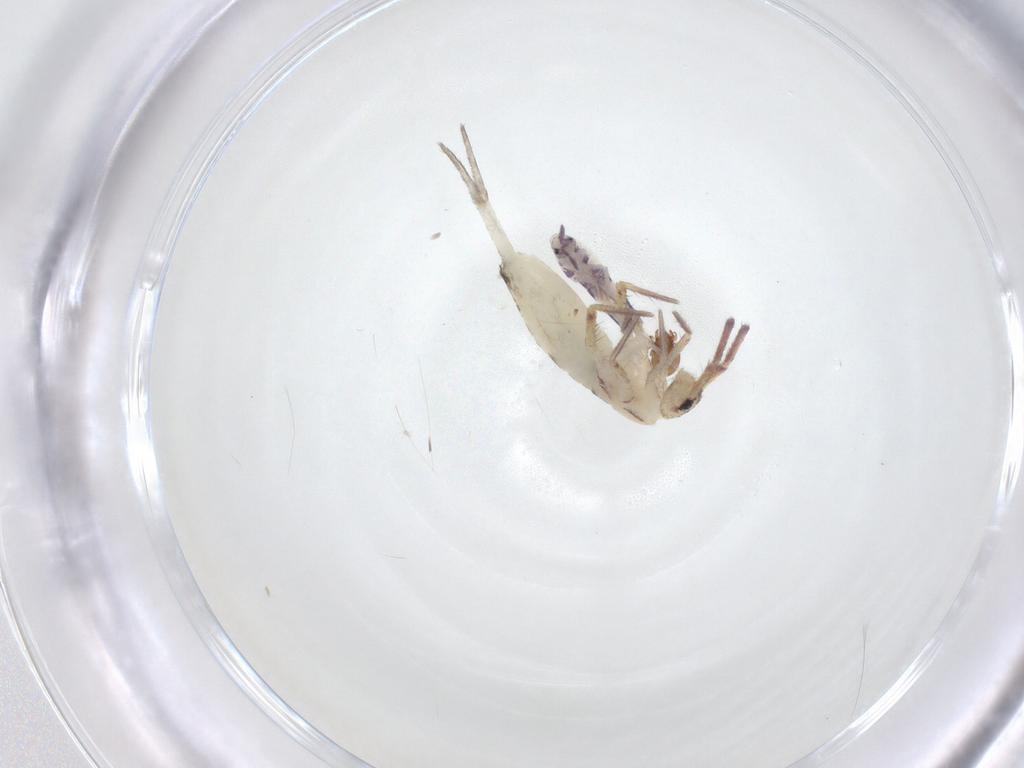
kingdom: Animalia
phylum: Arthropoda
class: Collembola
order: Entomobryomorpha
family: Paronellidae
